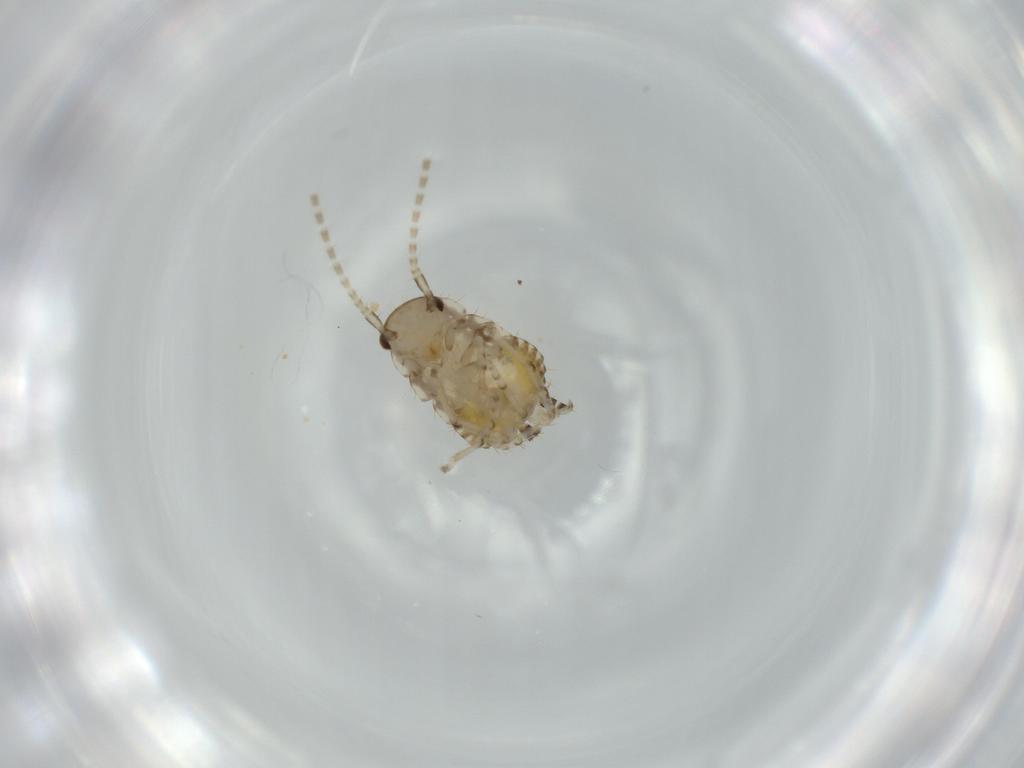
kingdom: Animalia
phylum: Arthropoda
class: Insecta
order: Blattodea
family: Ectobiidae
